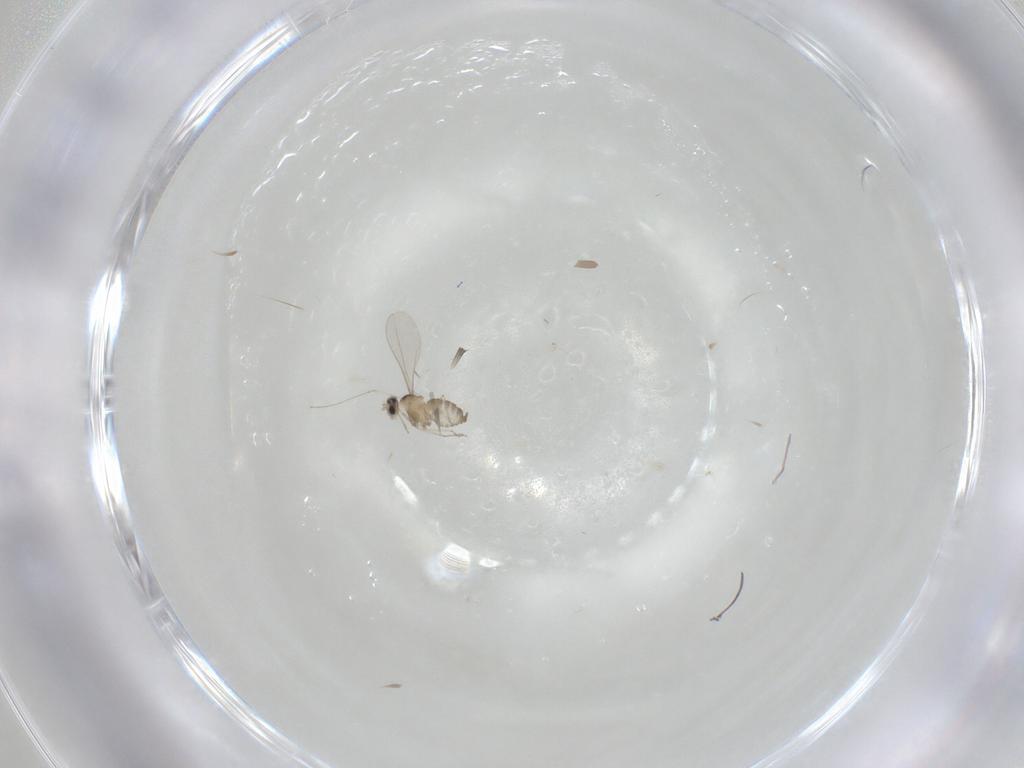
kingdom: Animalia
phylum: Arthropoda
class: Insecta
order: Diptera
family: Cecidomyiidae
